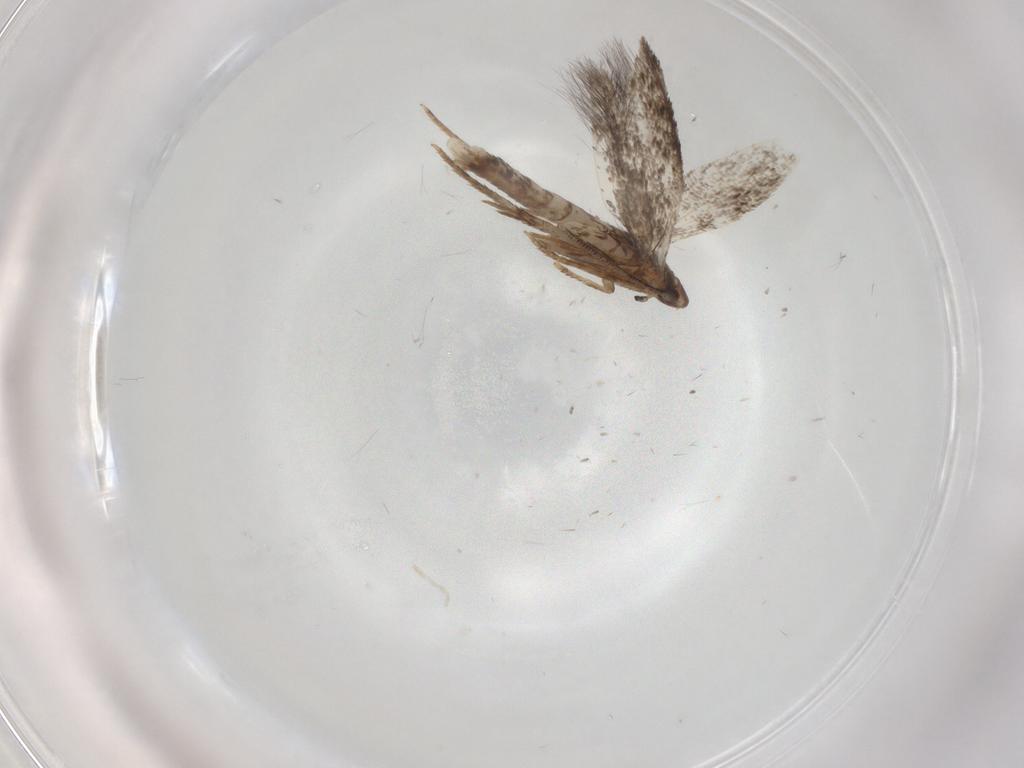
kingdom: Animalia
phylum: Arthropoda
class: Insecta
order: Lepidoptera
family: Gelechiidae
